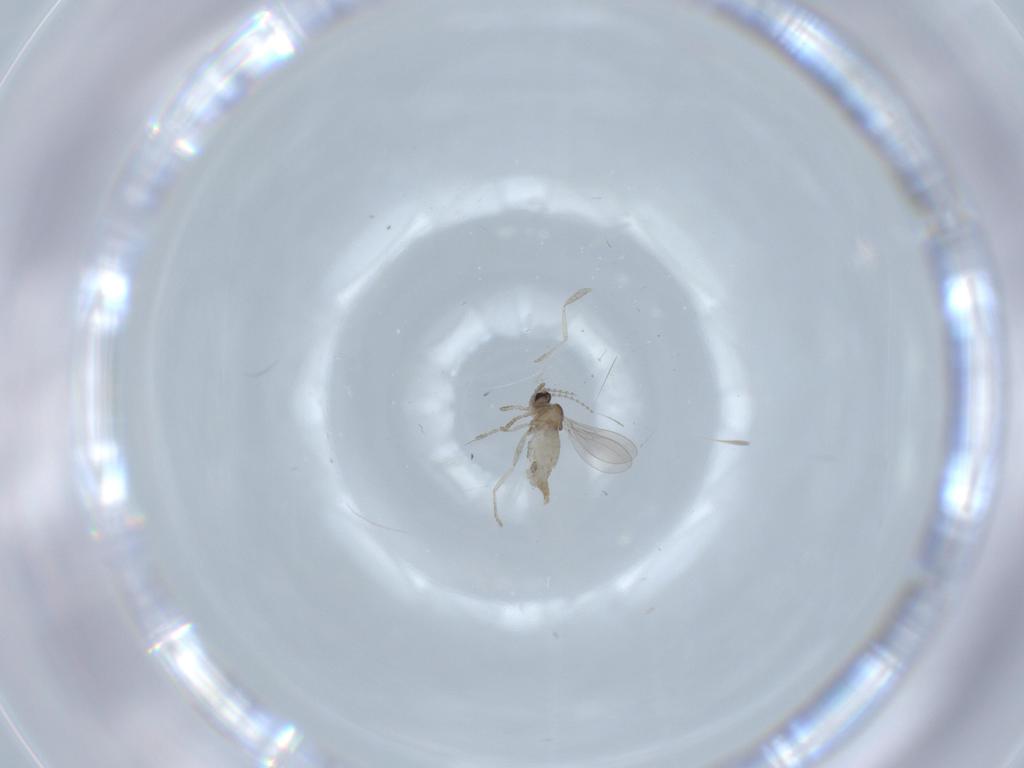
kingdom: Animalia
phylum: Arthropoda
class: Insecta
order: Diptera
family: Cecidomyiidae
